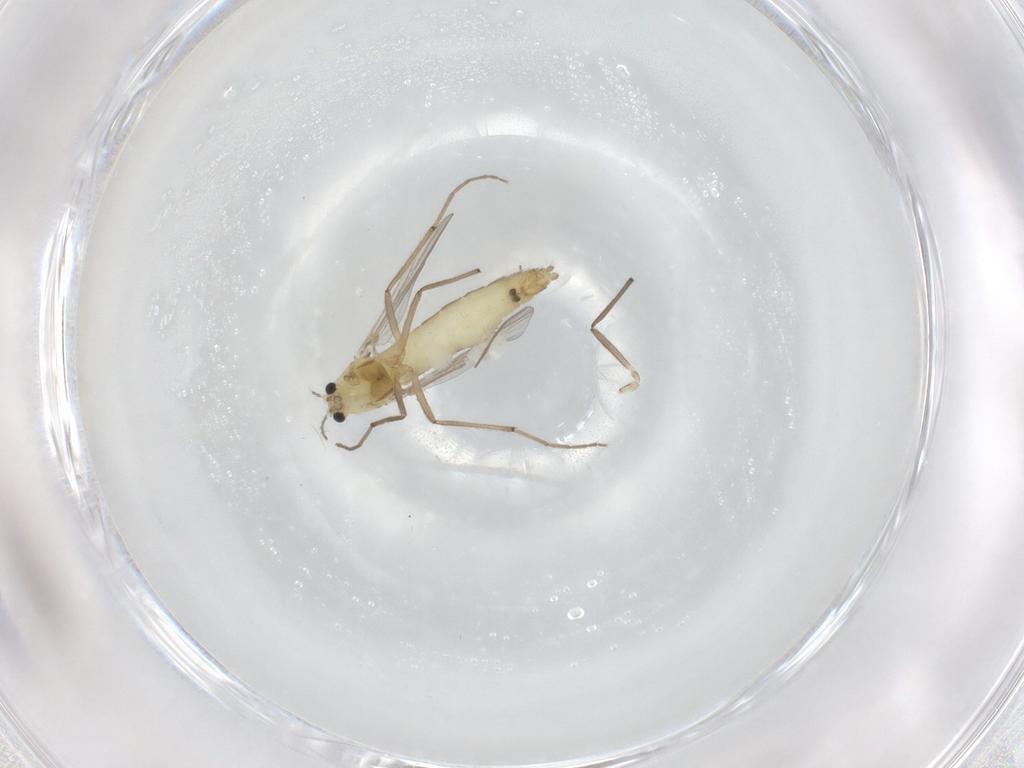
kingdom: Animalia
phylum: Arthropoda
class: Insecta
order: Diptera
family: Chironomidae
